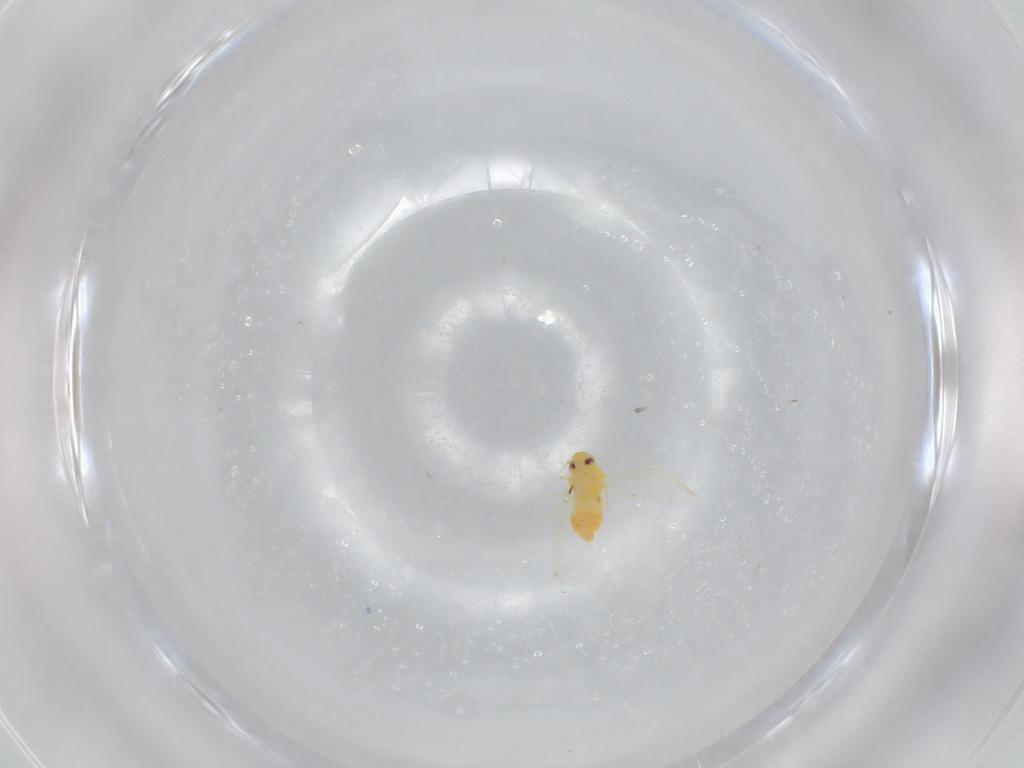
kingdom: Animalia
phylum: Arthropoda
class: Insecta
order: Hemiptera
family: Aleyrodidae
